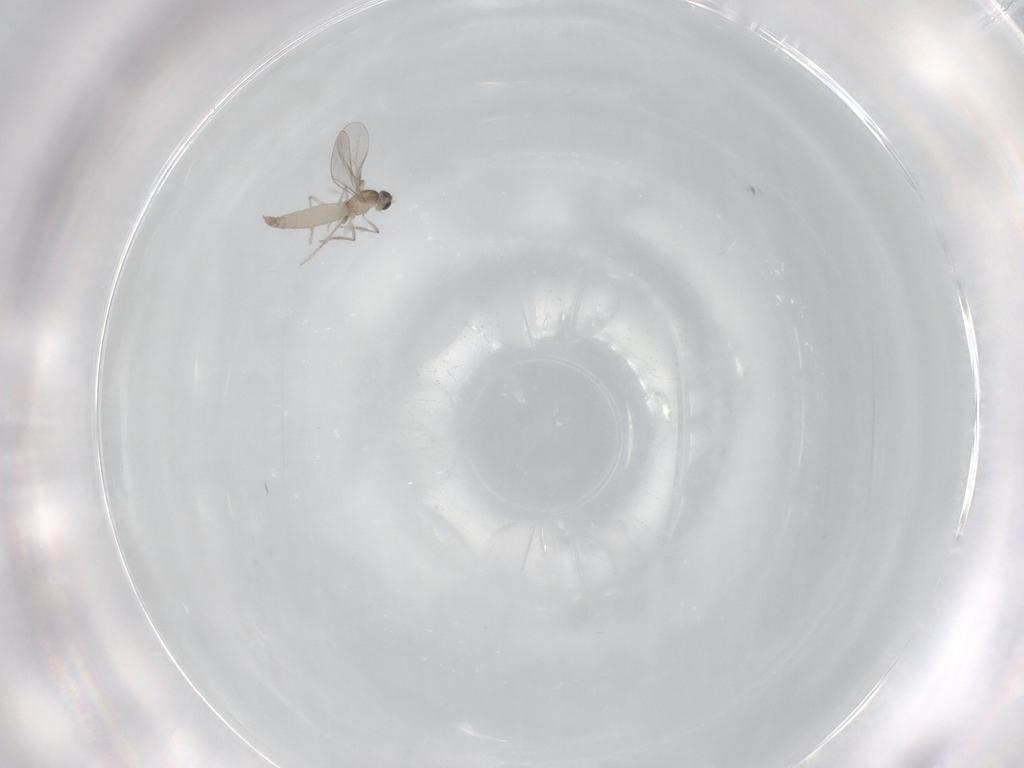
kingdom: Animalia
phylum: Arthropoda
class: Insecta
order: Diptera
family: Cecidomyiidae
